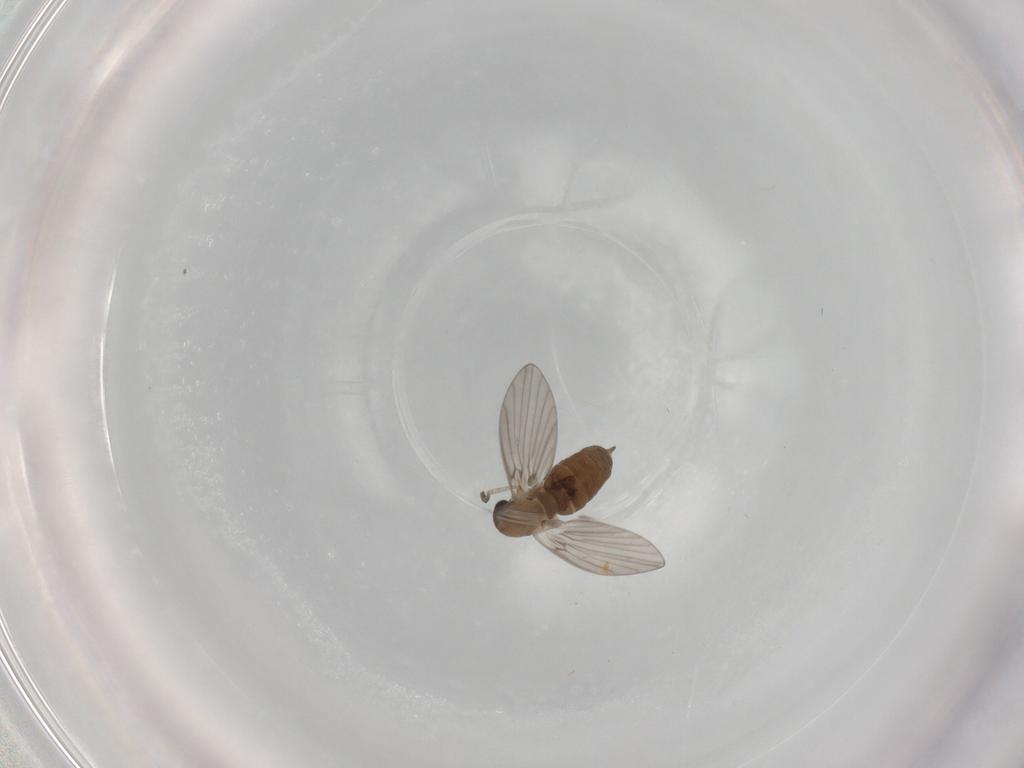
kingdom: Animalia
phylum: Arthropoda
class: Insecta
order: Diptera
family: Psychodidae
